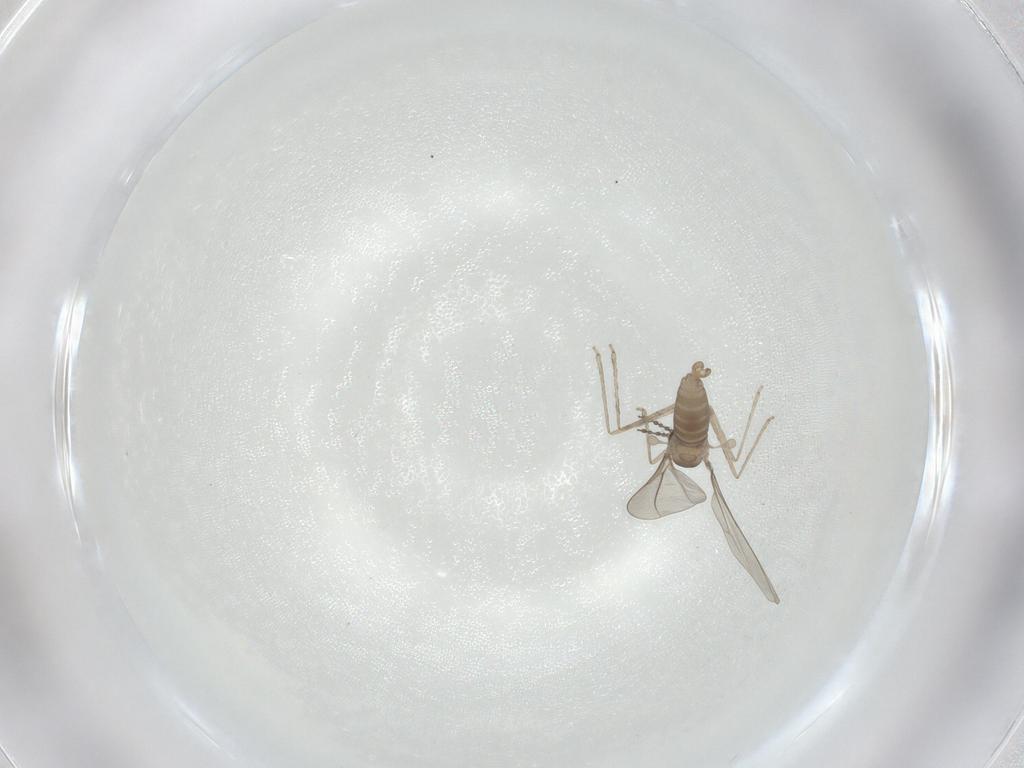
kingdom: Animalia
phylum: Arthropoda
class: Insecta
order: Diptera
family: Cecidomyiidae
